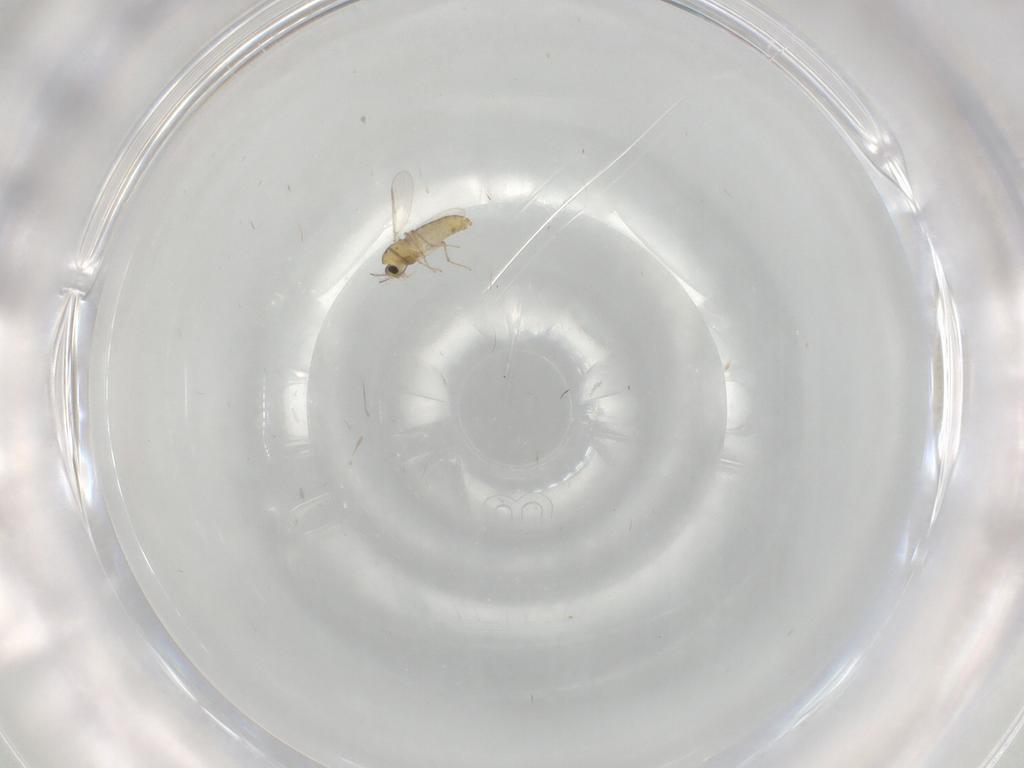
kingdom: Animalia
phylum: Arthropoda
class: Insecta
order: Diptera
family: Chironomidae
